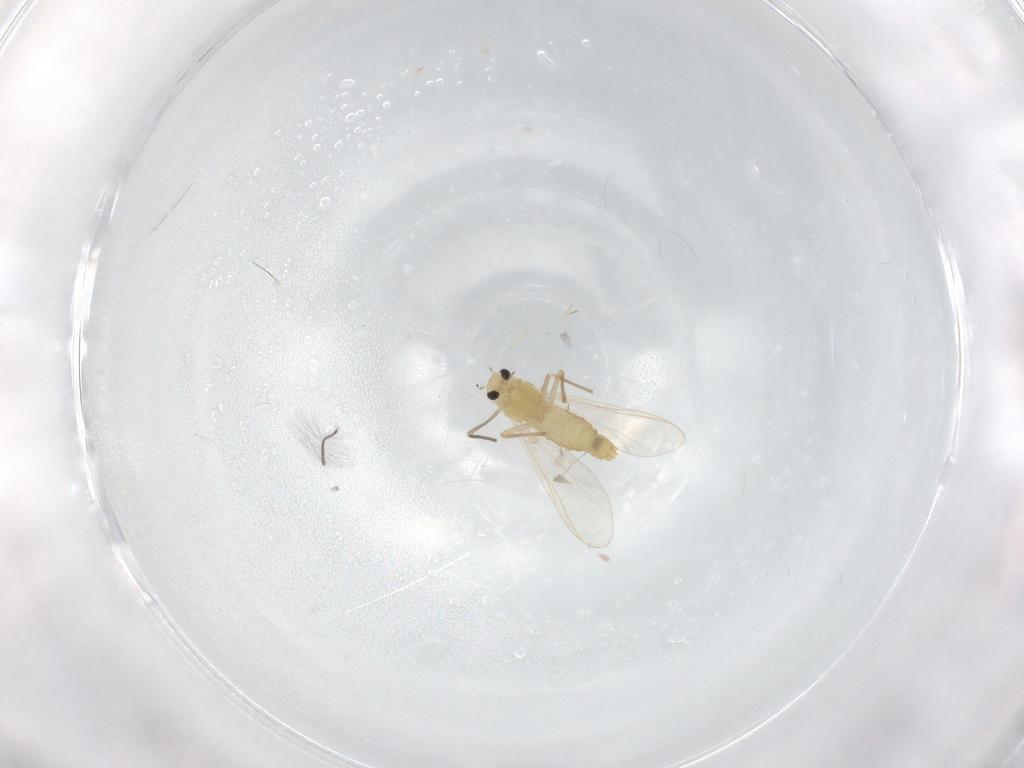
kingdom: Animalia
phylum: Arthropoda
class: Insecta
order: Diptera
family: Chironomidae
